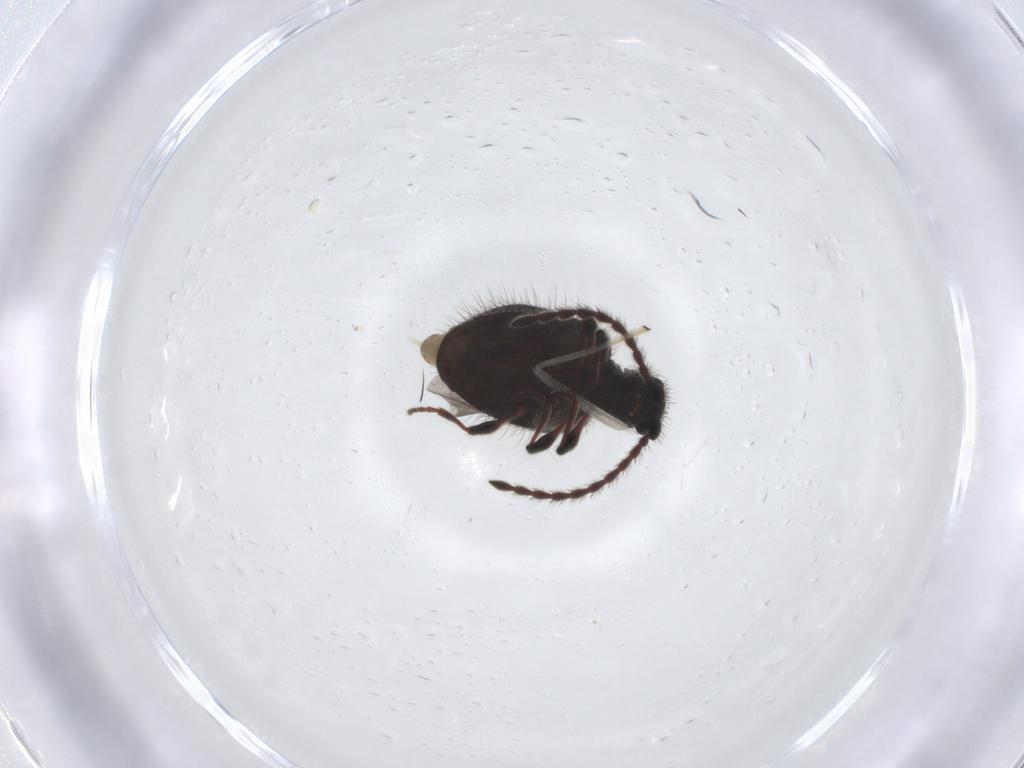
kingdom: Animalia
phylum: Arthropoda
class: Insecta
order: Coleoptera
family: Ptinidae
